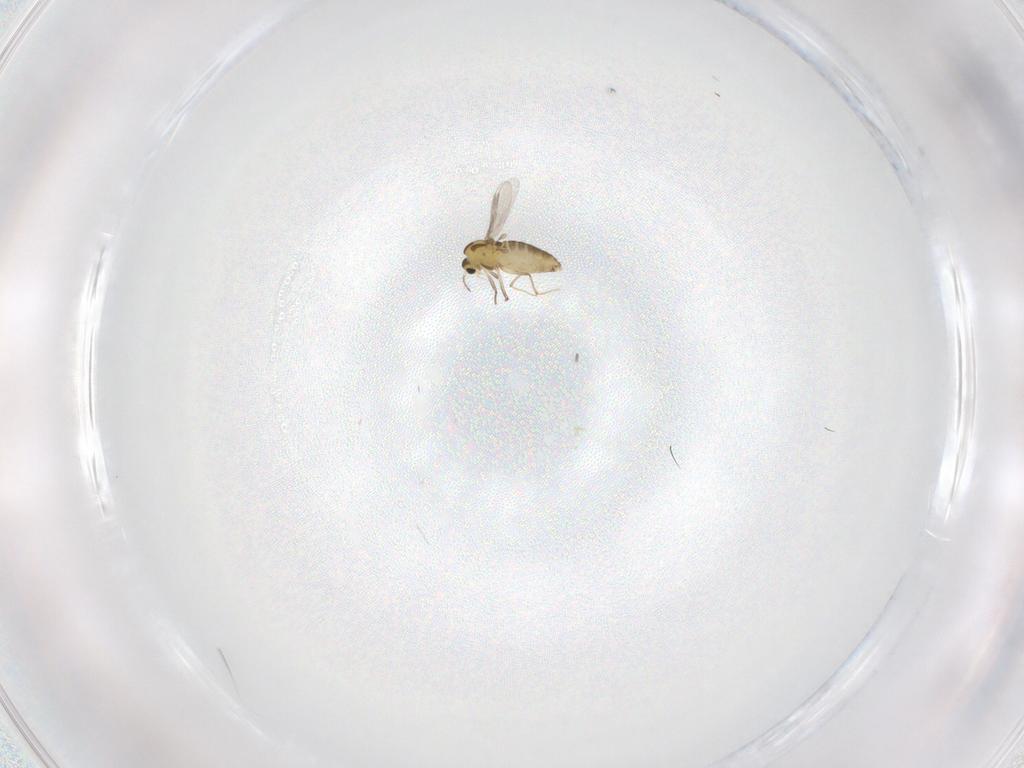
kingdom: Animalia
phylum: Arthropoda
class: Insecta
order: Diptera
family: Chironomidae
